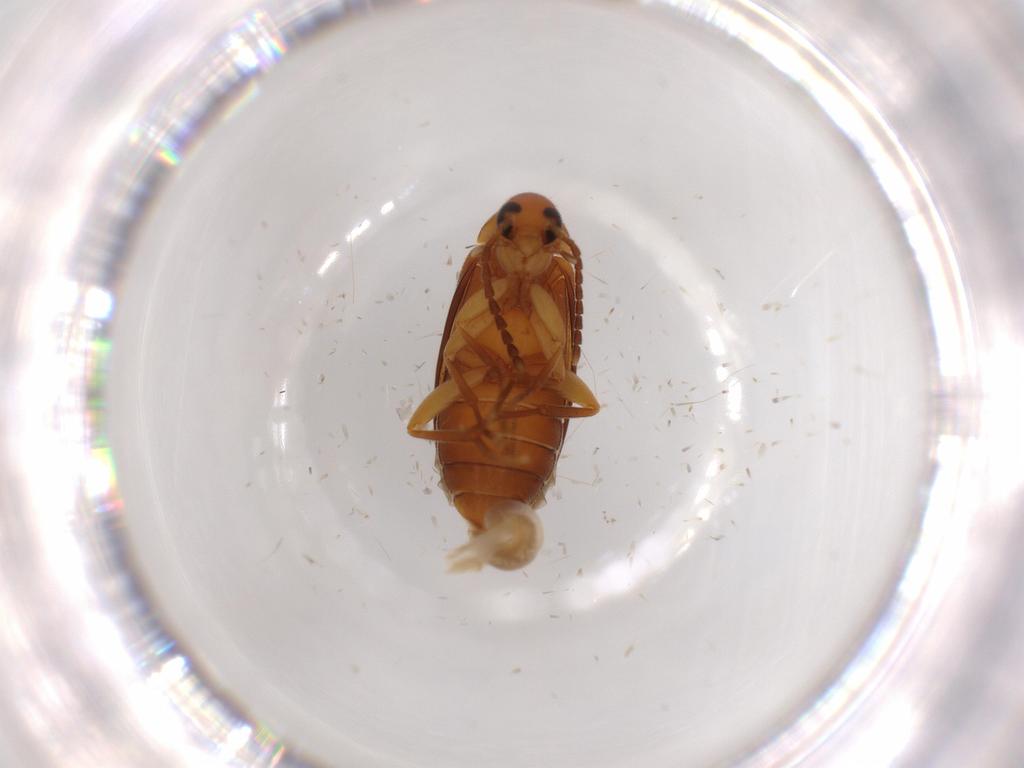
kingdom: Animalia
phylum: Arthropoda
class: Insecta
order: Coleoptera
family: Scraptiidae
